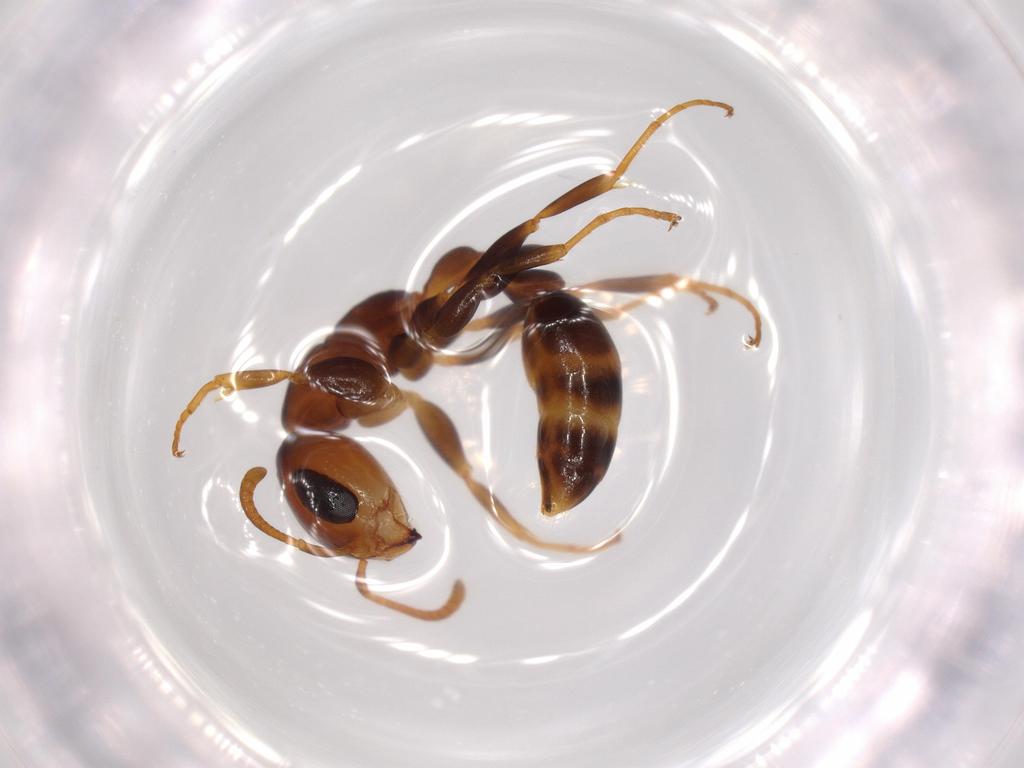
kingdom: Animalia
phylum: Arthropoda
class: Insecta
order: Hymenoptera
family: Formicidae
